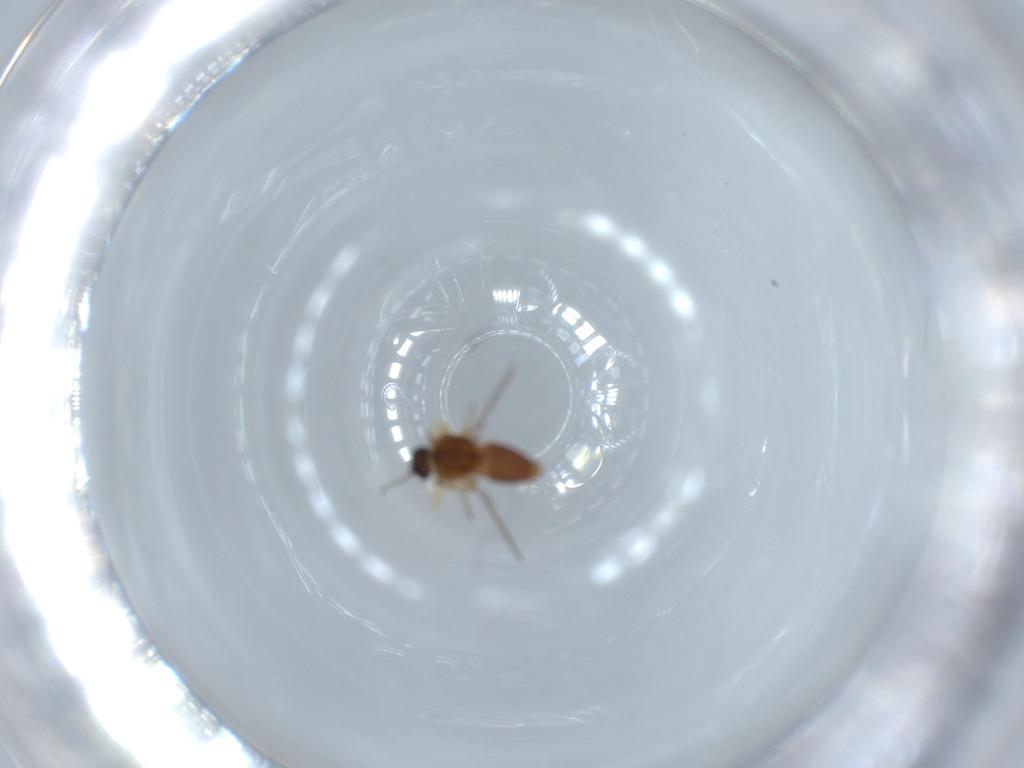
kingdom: Animalia
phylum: Arthropoda
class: Insecta
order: Diptera
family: Ceratopogonidae
